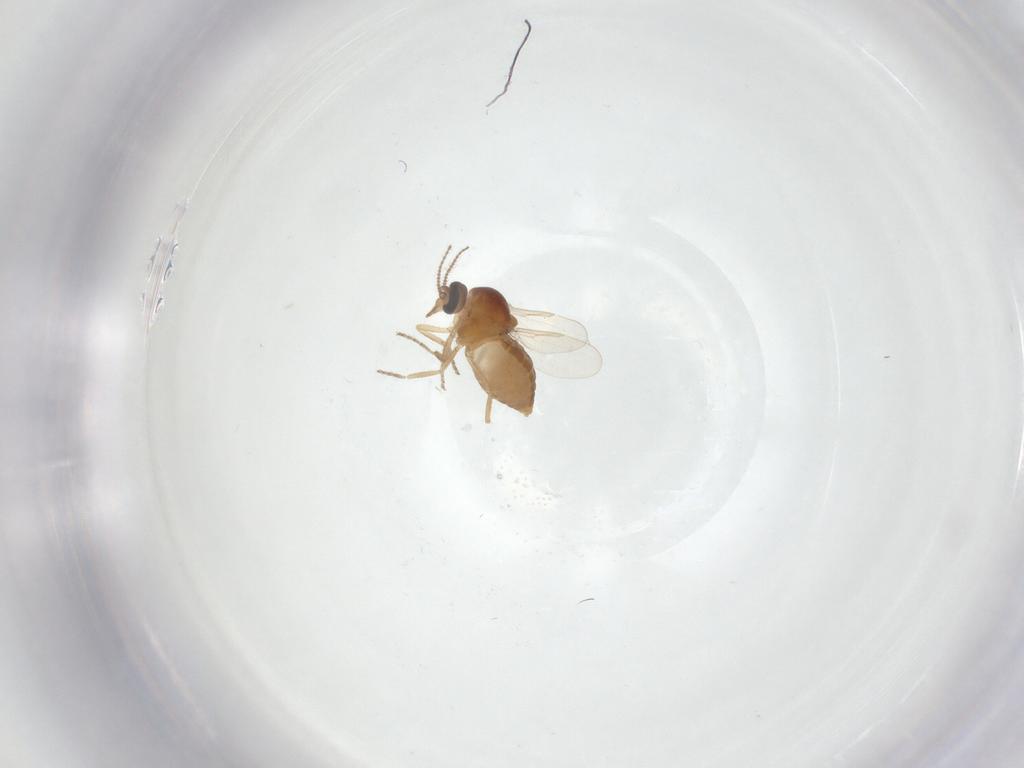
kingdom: Animalia
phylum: Arthropoda
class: Insecta
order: Diptera
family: Ceratopogonidae
